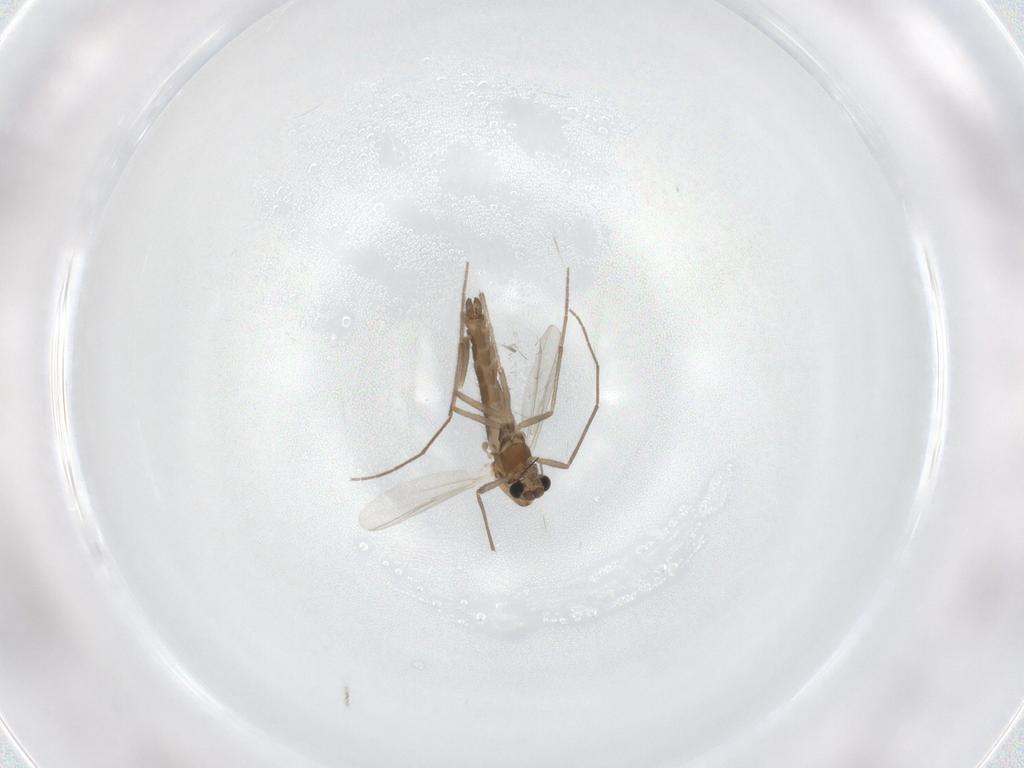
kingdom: Animalia
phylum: Arthropoda
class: Insecta
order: Diptera
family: Chironomidae
